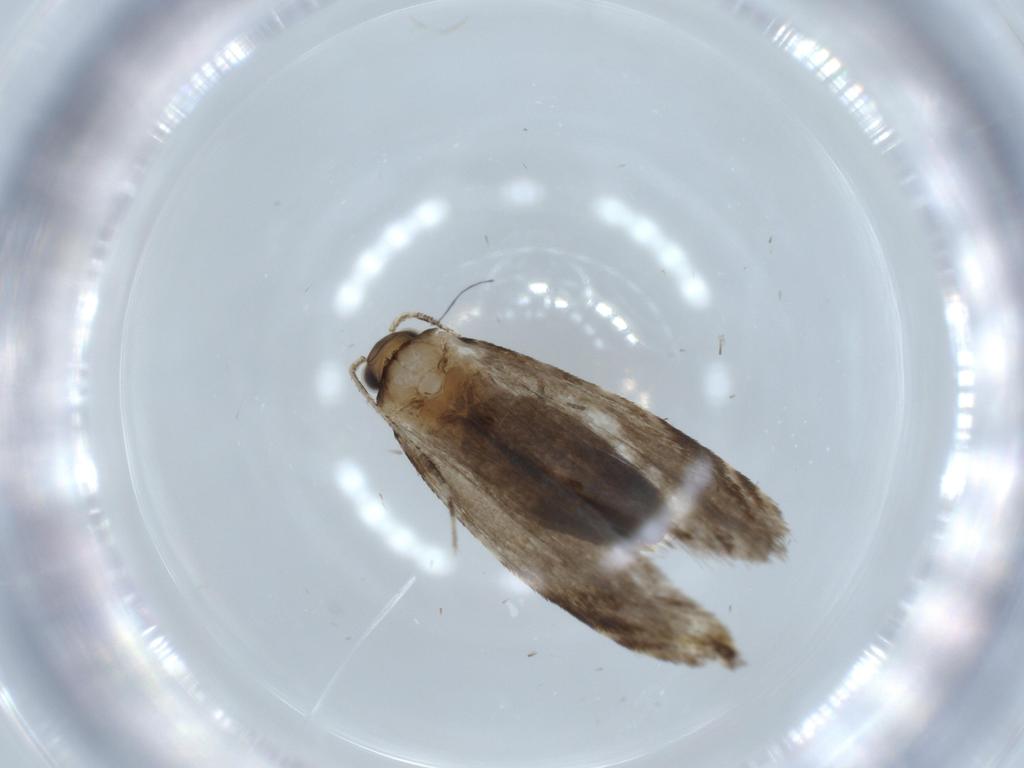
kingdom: Animalia
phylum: Arthropoda
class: Insecta
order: Lepidoptera
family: Tineidae
